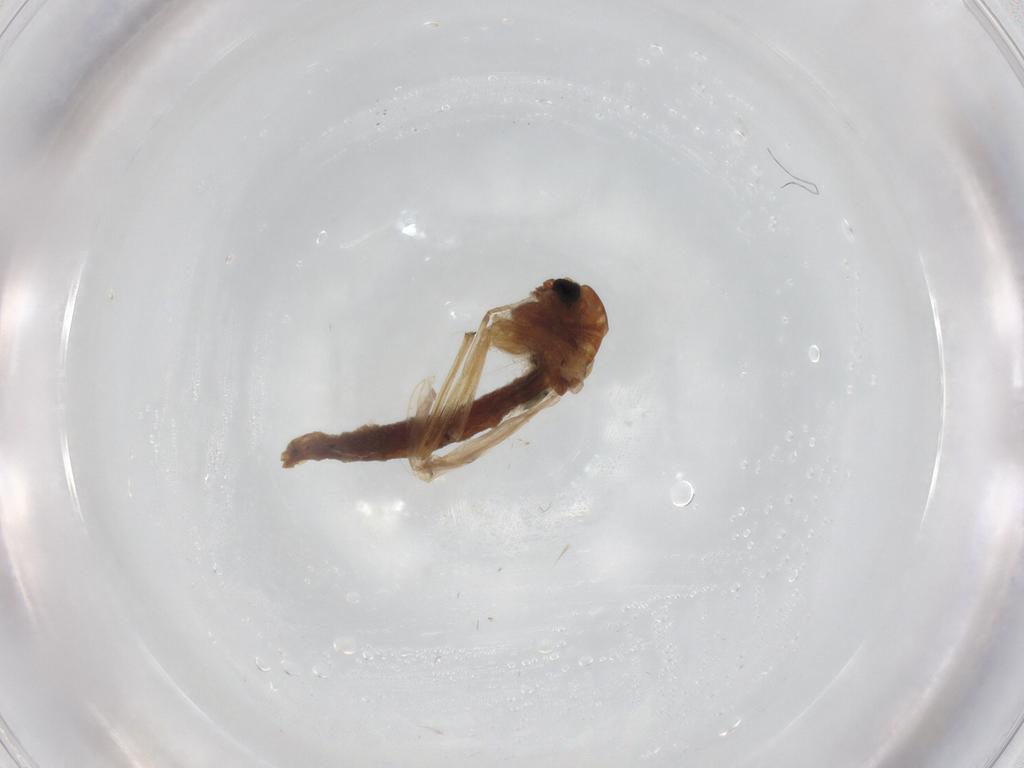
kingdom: Animalia
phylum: Arthropoda
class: Insecta
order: Diptera
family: Chironomidae
